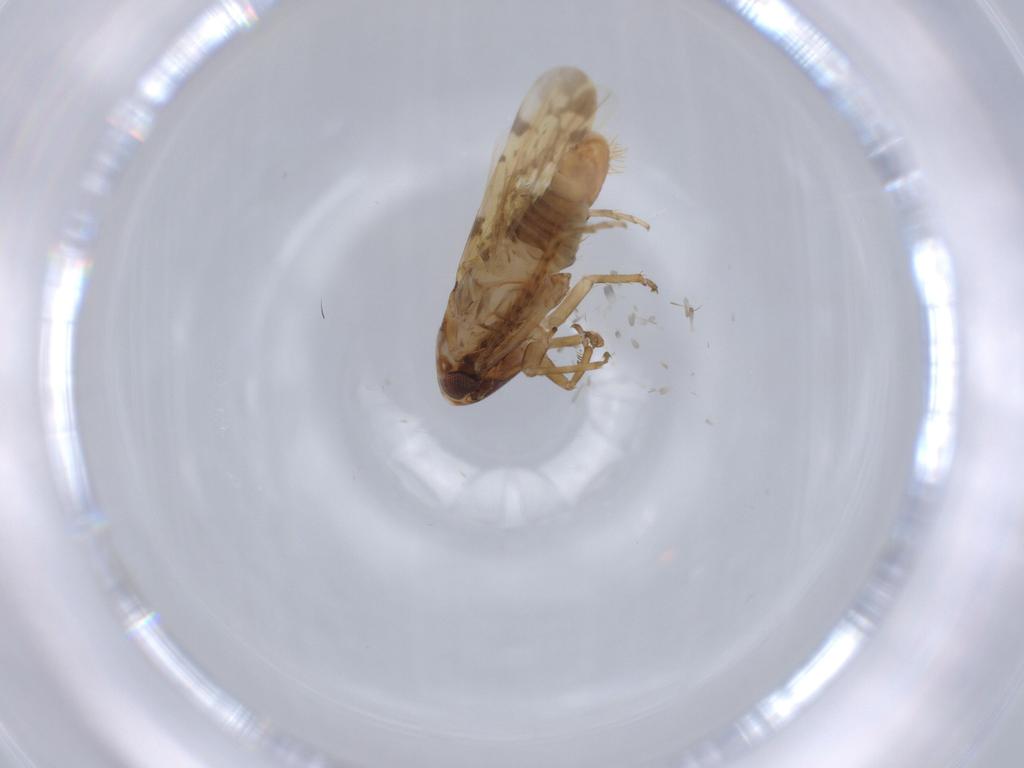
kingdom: Animalia
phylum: Arthropoda
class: Insecta
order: Hemiptera
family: Cicadellidae
